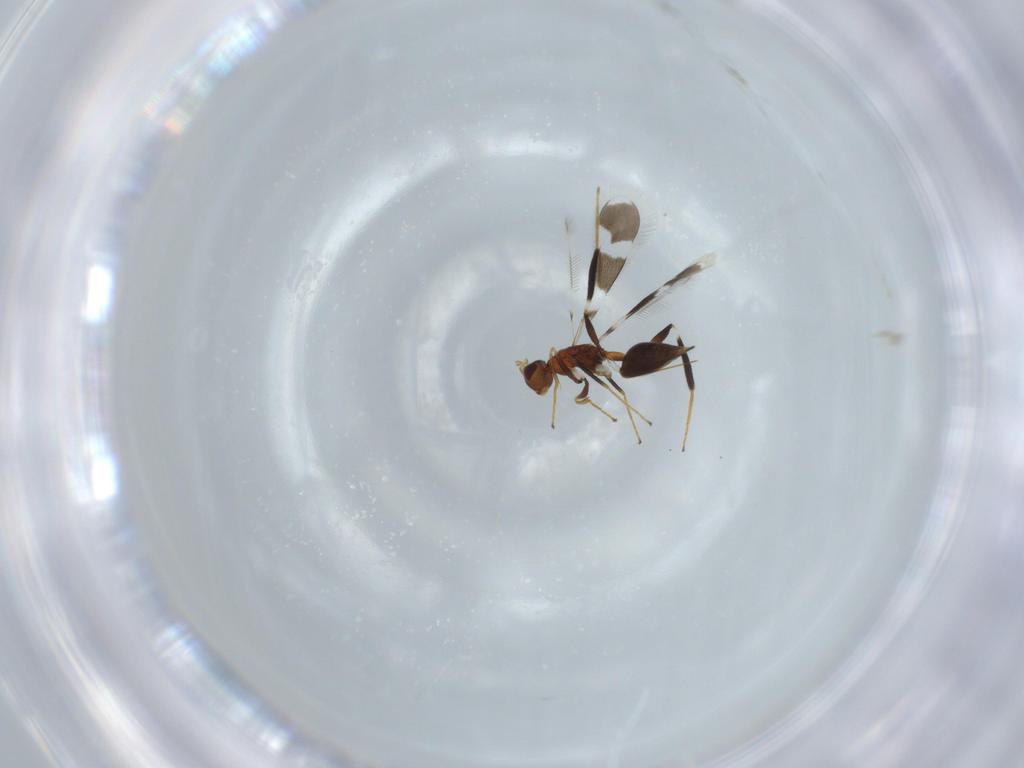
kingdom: Animalia
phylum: Arthropoda
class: Insecta
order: Hymenoptera
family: Mymaridae
